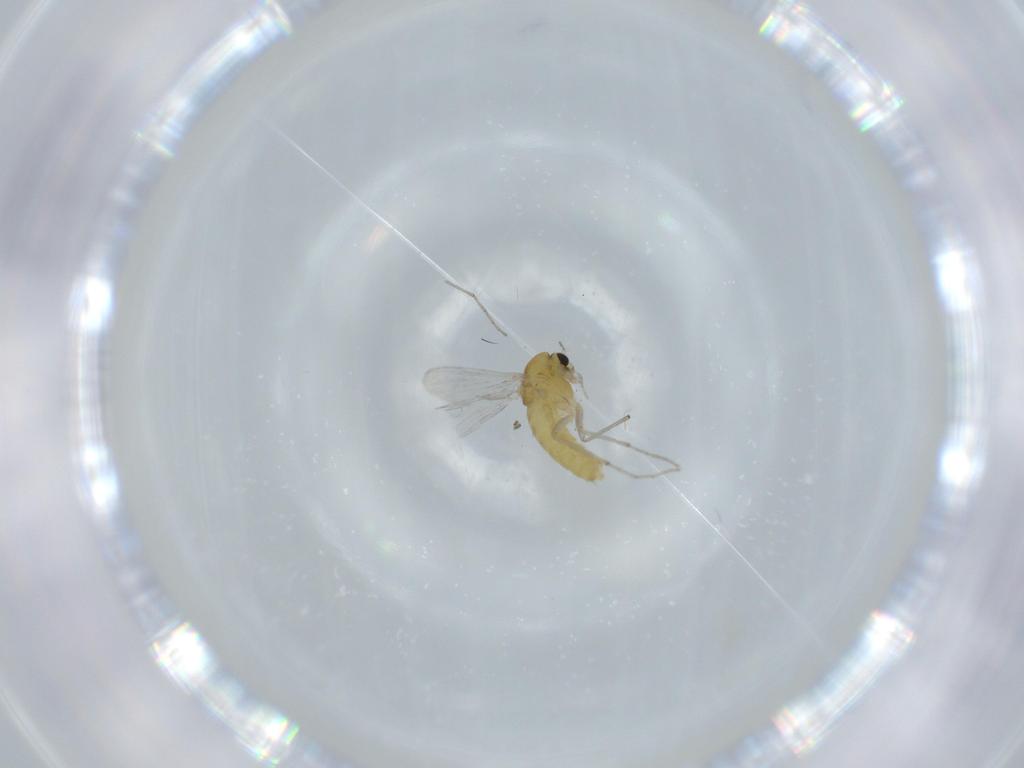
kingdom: Animalia
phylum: Arthropoda
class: Insecta
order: Diptera
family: Chironomidae
